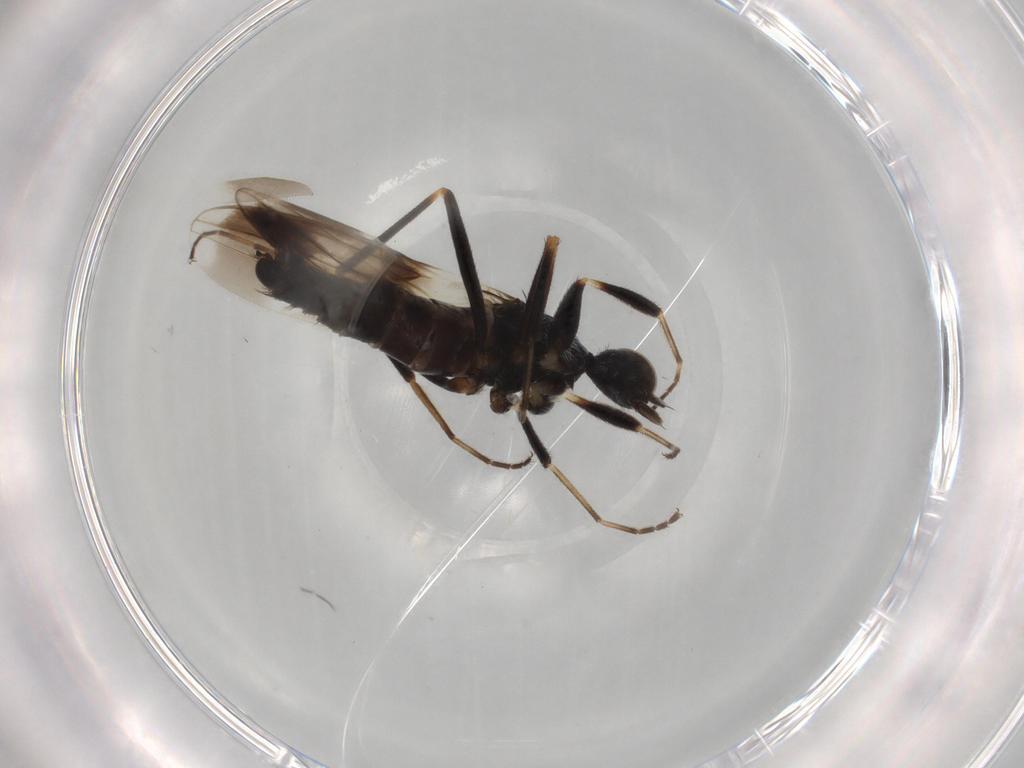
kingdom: Animalia
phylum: Arthropoda
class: Insecta
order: Diptera
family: Hybotidae
